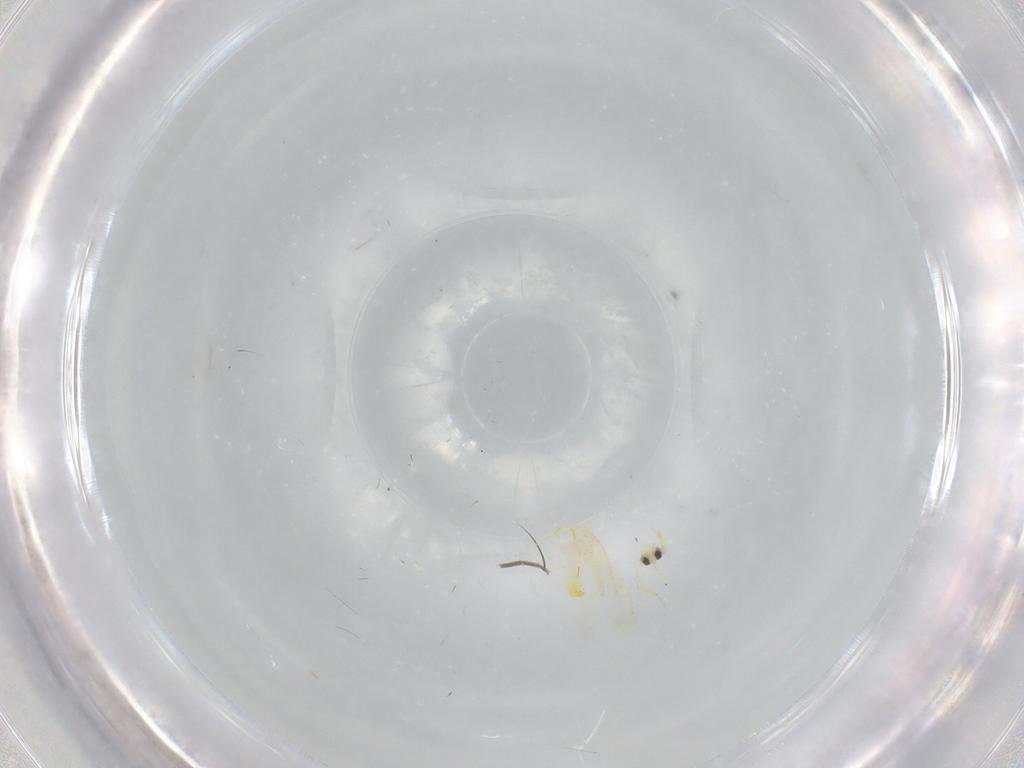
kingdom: Animalia
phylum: Arthropoda
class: Insecta
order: Hemiptera
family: Aleyrodidae
